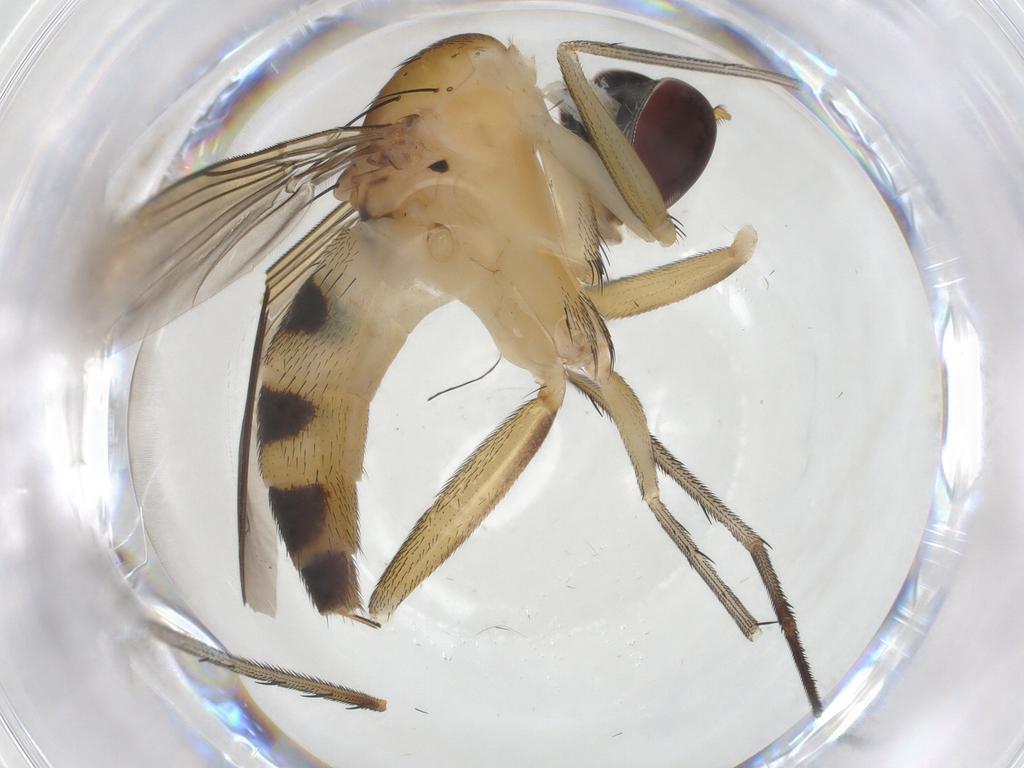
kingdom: Animalia
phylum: Arthropoda
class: Insecta
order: Diptera
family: Dolichopodidae
